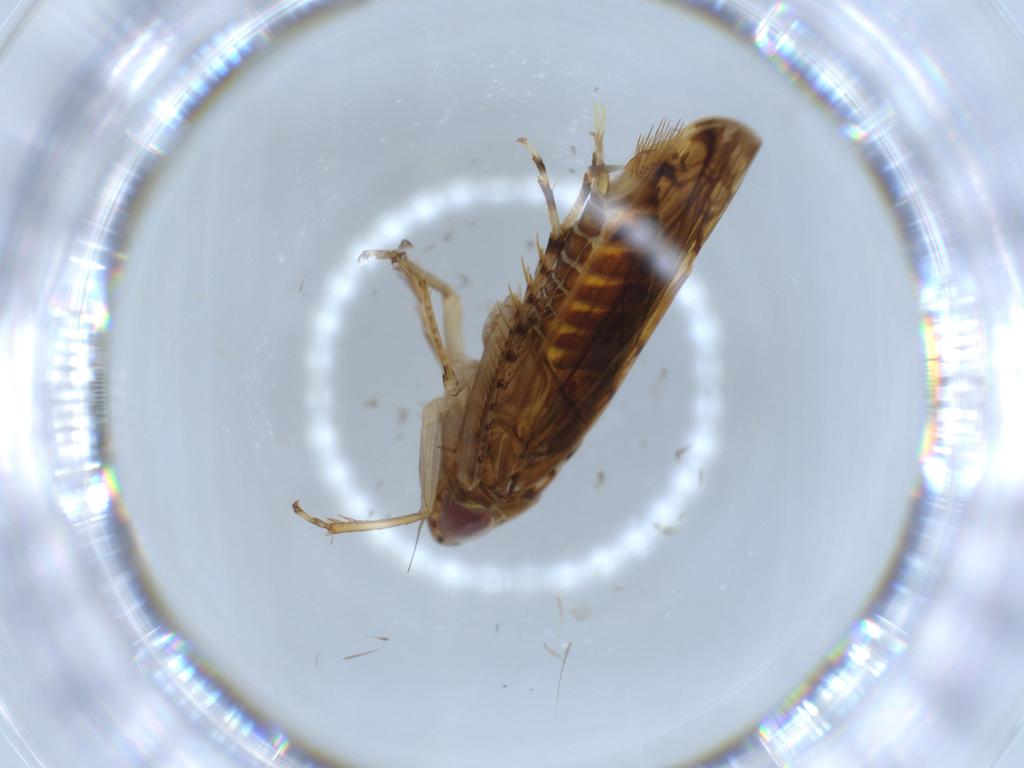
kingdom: Animalia
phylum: Arthropoda
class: Insecta
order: Hemiptera
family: Cicadellidae
